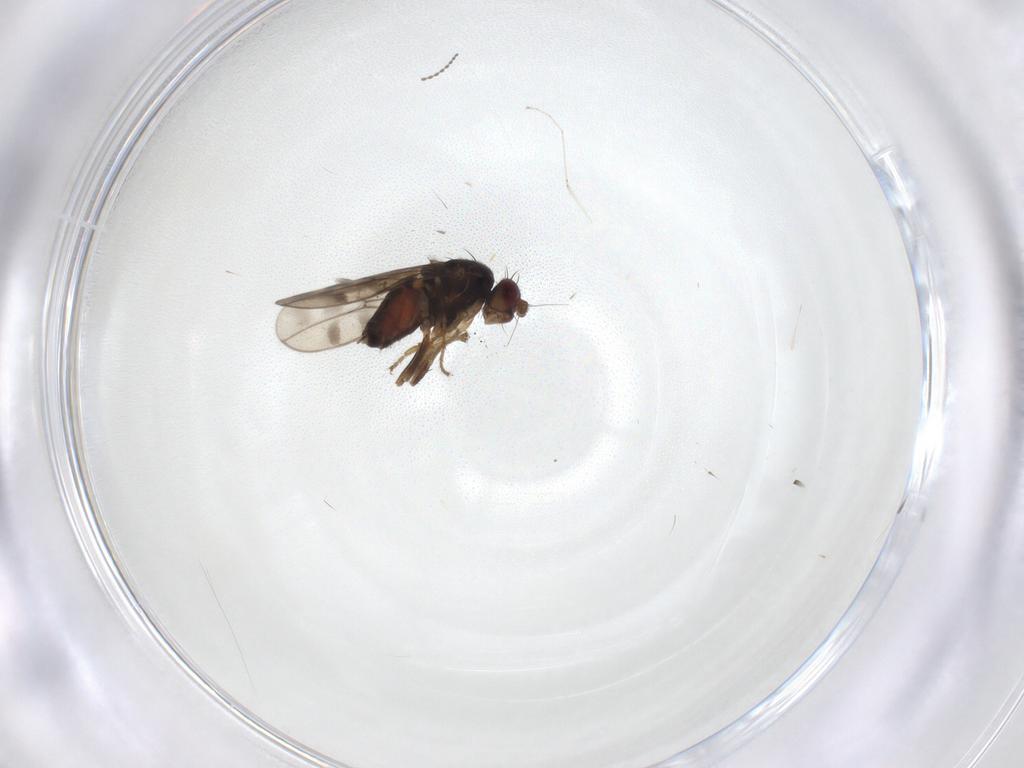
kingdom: Animalia
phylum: Arthropoda
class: Insecta
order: Diptera
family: Sphaeroceridae
